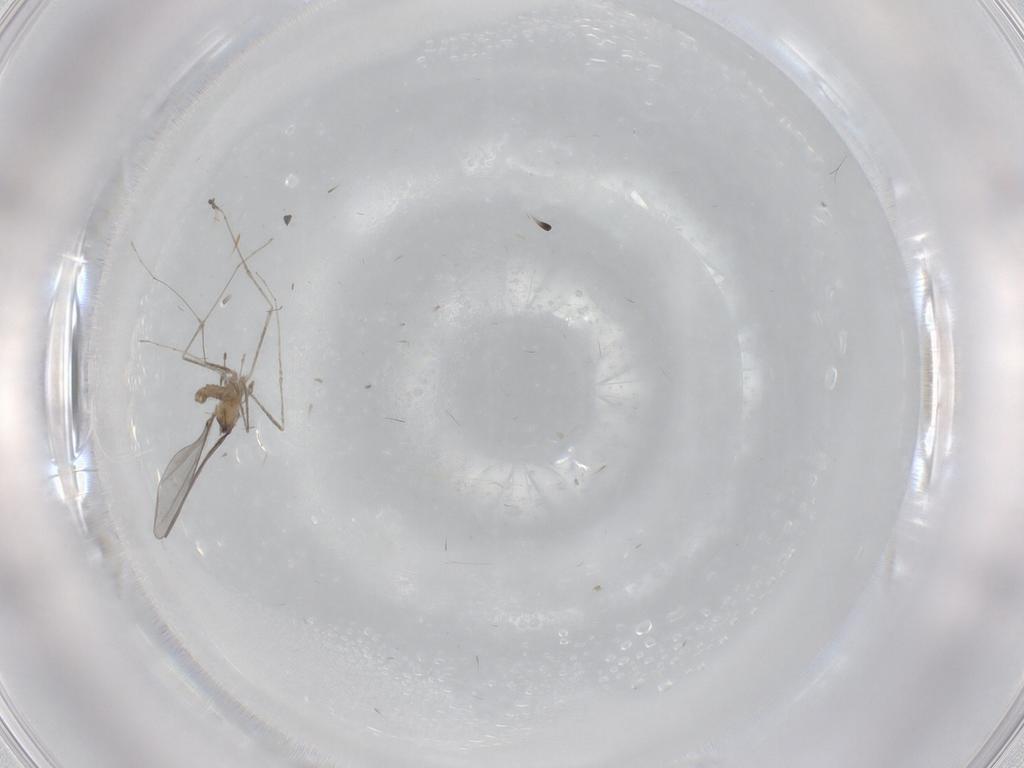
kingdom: Animalia
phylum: Arthropoda
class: Insecta
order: Diptera
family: Cecidomyiidae
